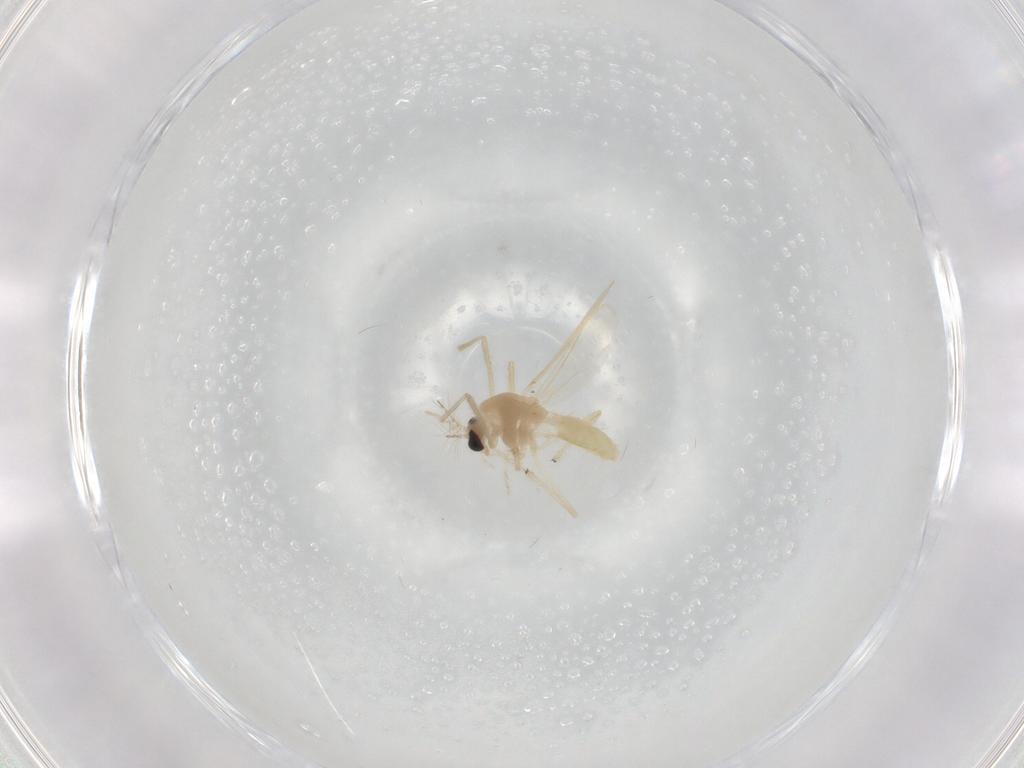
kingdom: Animalia
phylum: Arthropoda
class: Insecta
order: Diptera
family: Chironomidae
